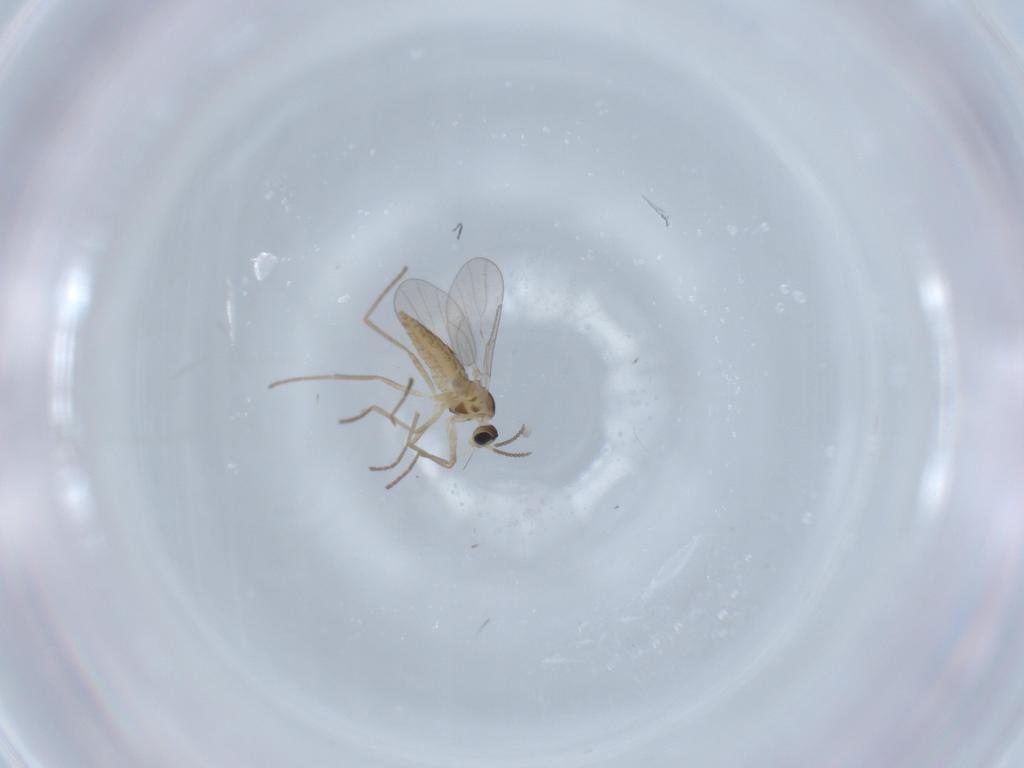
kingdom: Animalia
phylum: Arthropoda
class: Insecta
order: Diptera
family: Cecidomyiidae
